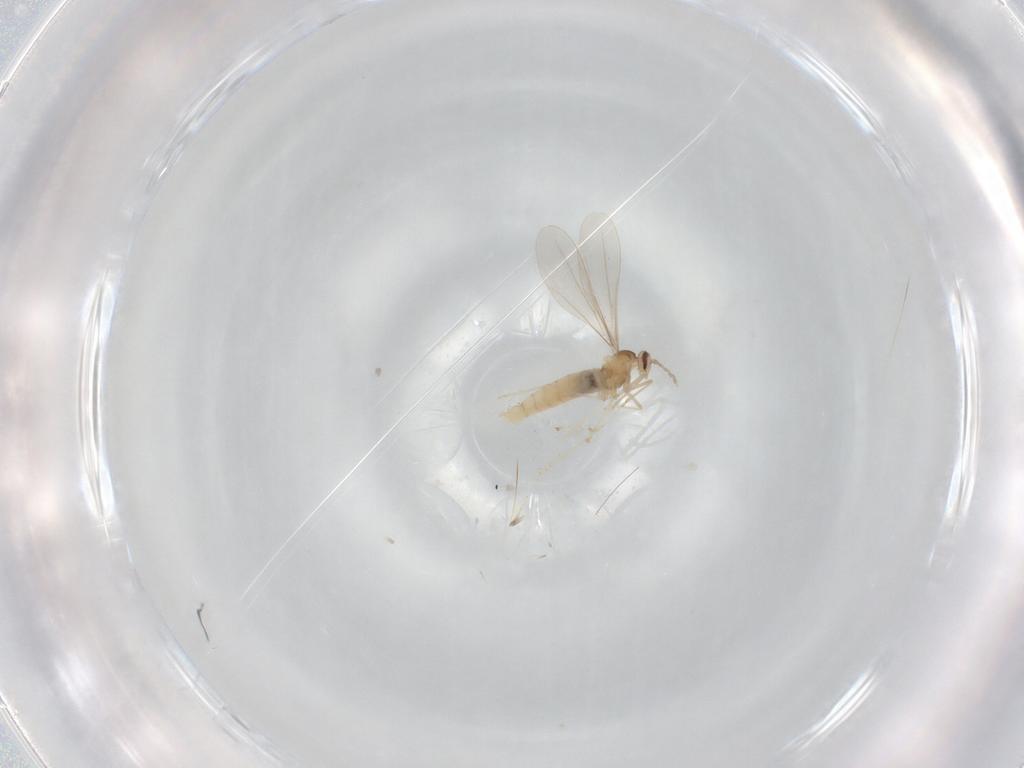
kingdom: Animalia
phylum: Arthropoda
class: Insecta
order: Diptera
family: Cecidomyiidae
